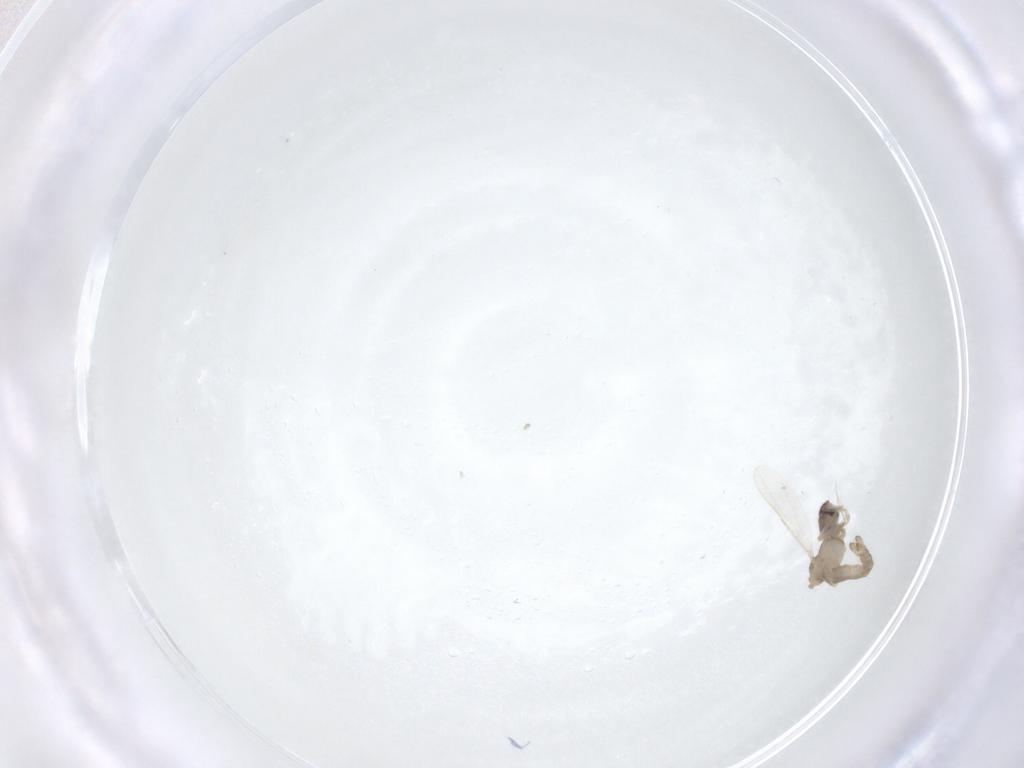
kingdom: Animalia
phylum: Arthropoda
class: Insecta
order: Diptera
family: Ceratopogonidae
